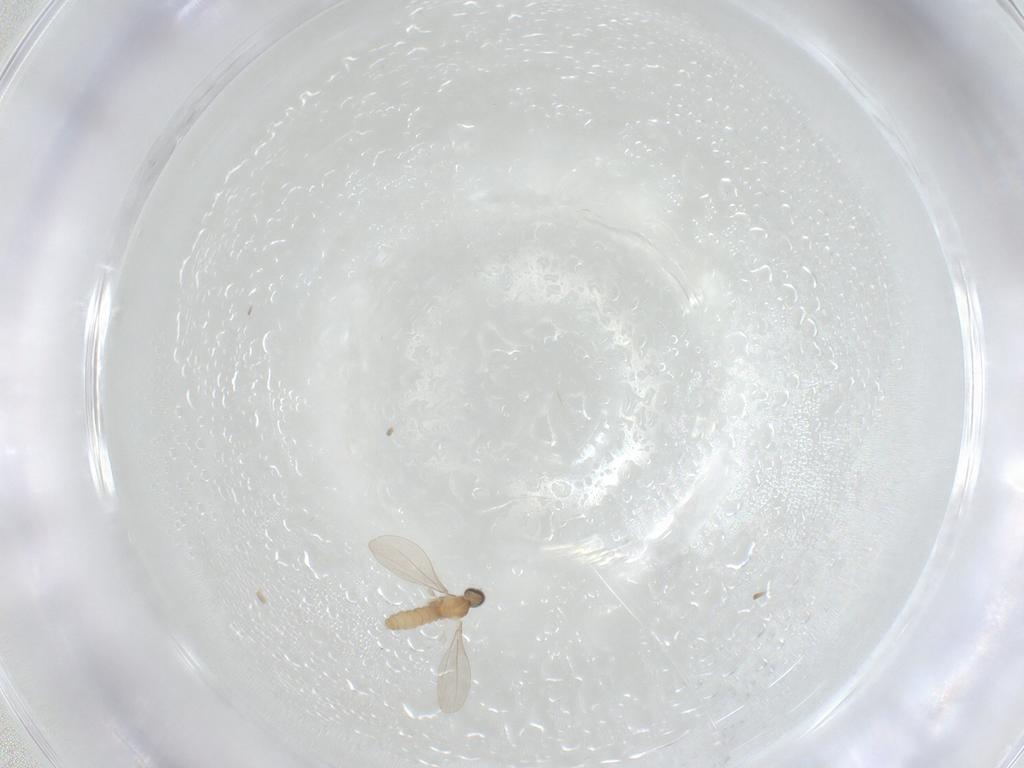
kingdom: Animalia
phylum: Arthropoda
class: Insecta
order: Diptera
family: Cecidomyiidae
